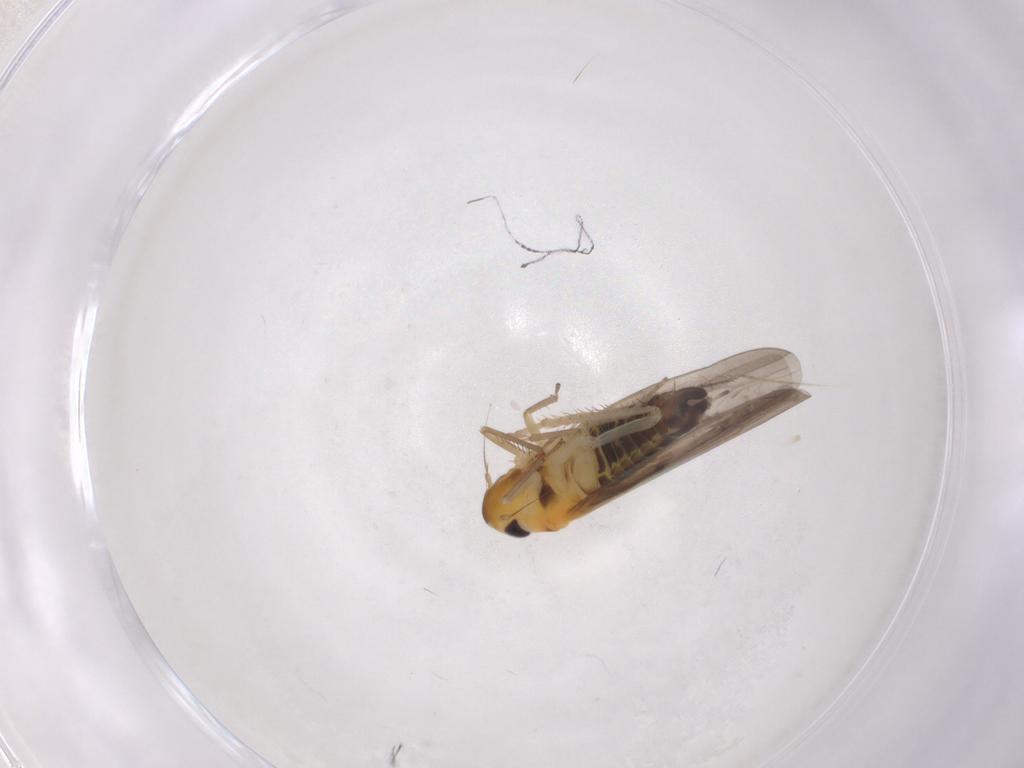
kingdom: Animalia
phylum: Arthropoda
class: Insecta
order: Hemiptera
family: Cicadellidae
